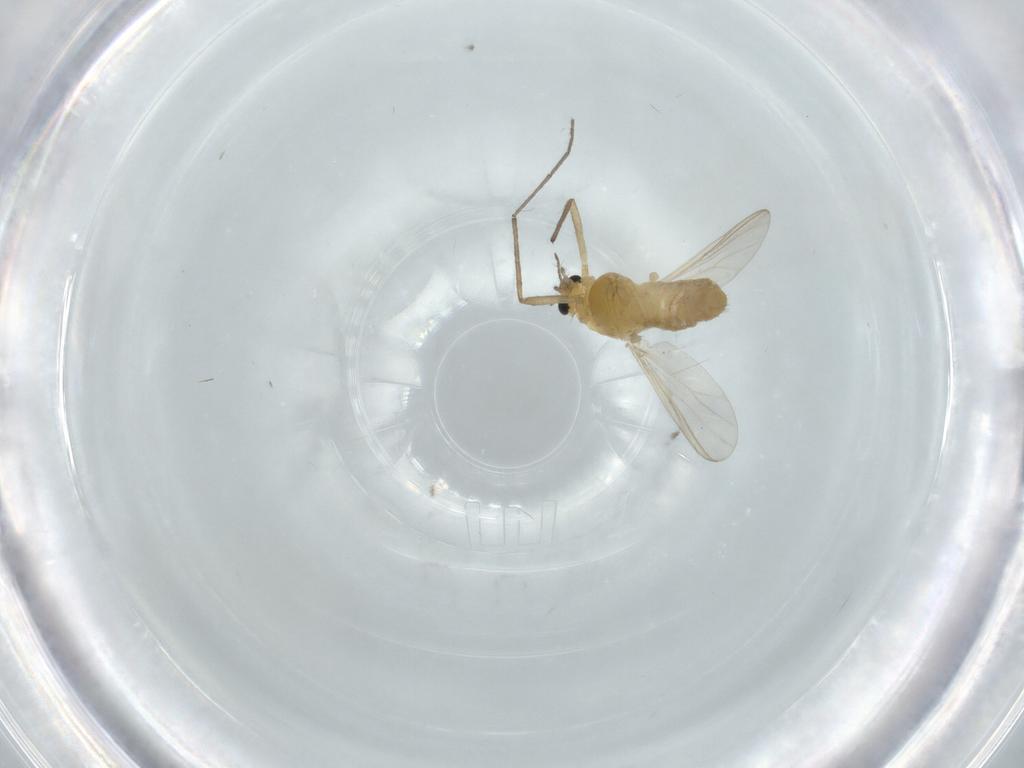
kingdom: Animalia
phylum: Arthropoda
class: Insecta
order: Diptera
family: Chironomidae
